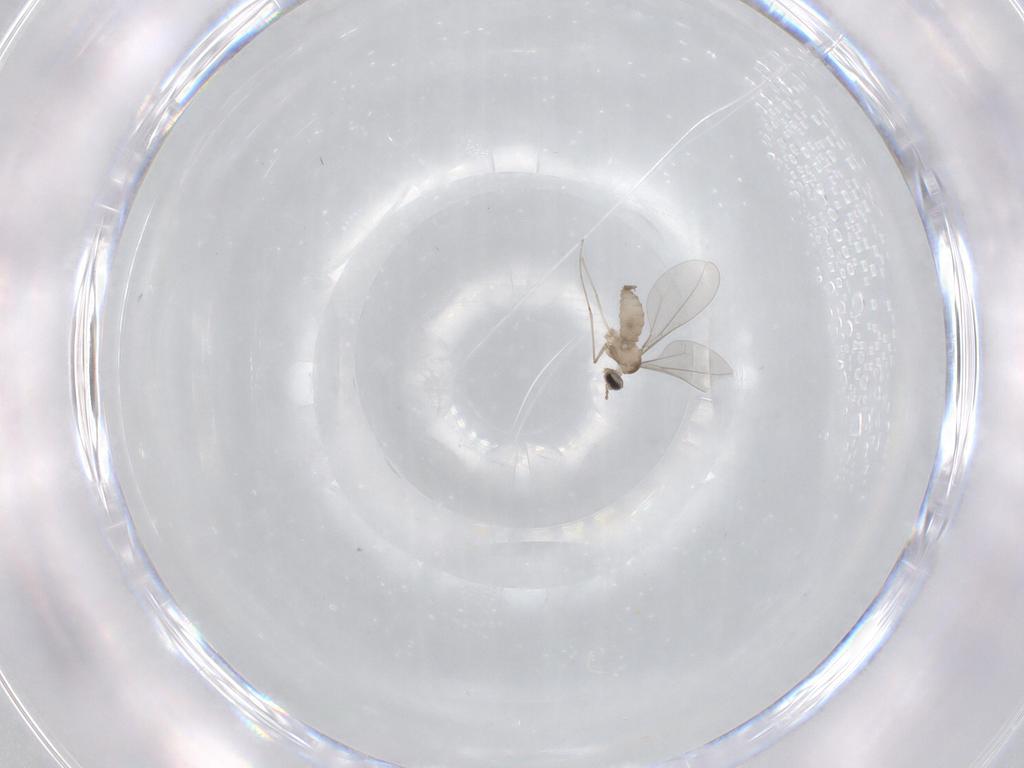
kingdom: Animalia
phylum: Arthropoda
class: Insecta
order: Diptera
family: Cecidomyiidae
